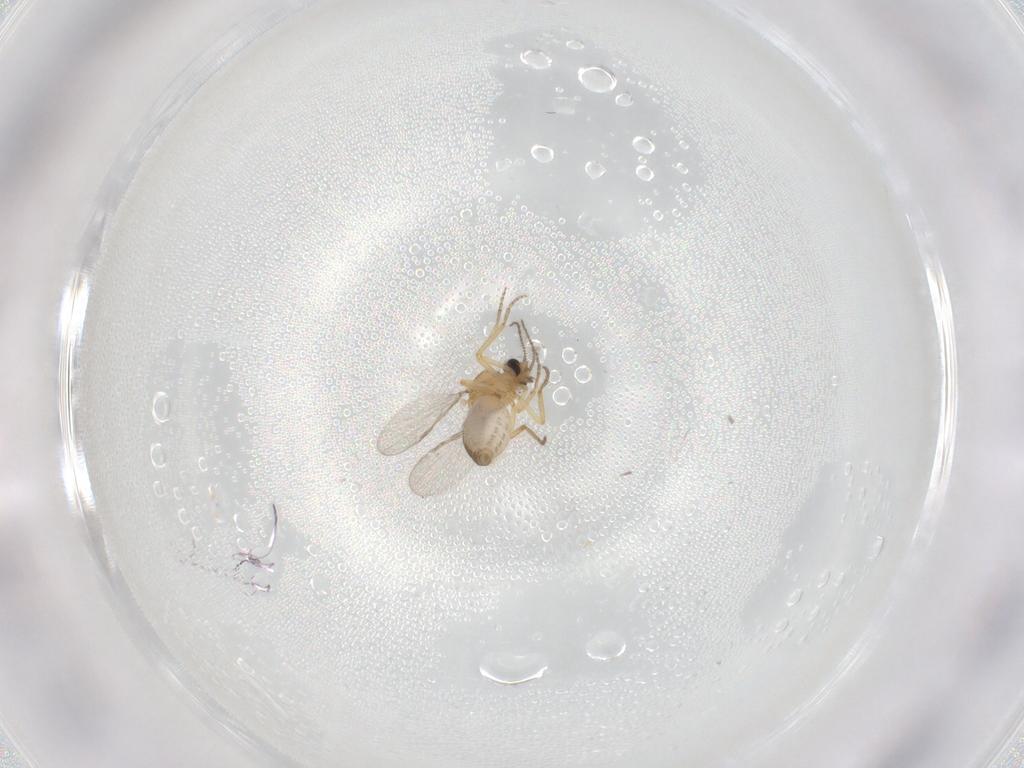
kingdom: Animalia
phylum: Arthropoda
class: Insecta
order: Diptera
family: Ceratopogonidae
